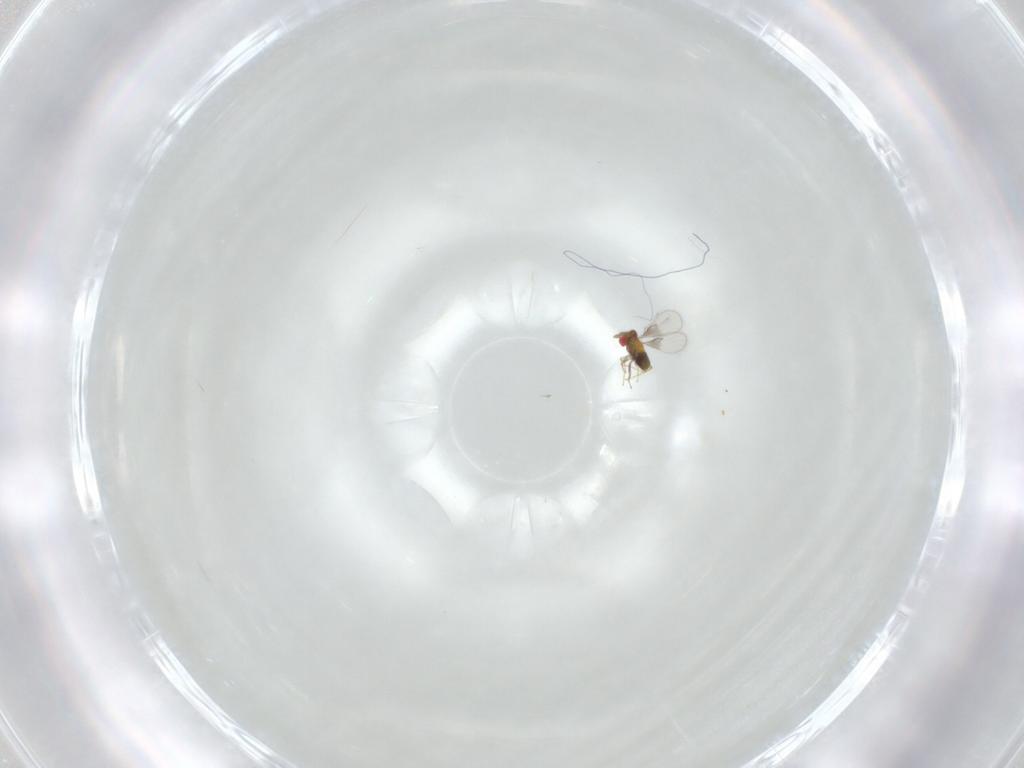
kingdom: Animalia
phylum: Arthropoda
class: Insecta
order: Hymenoptera
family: Trichogrammatidae
